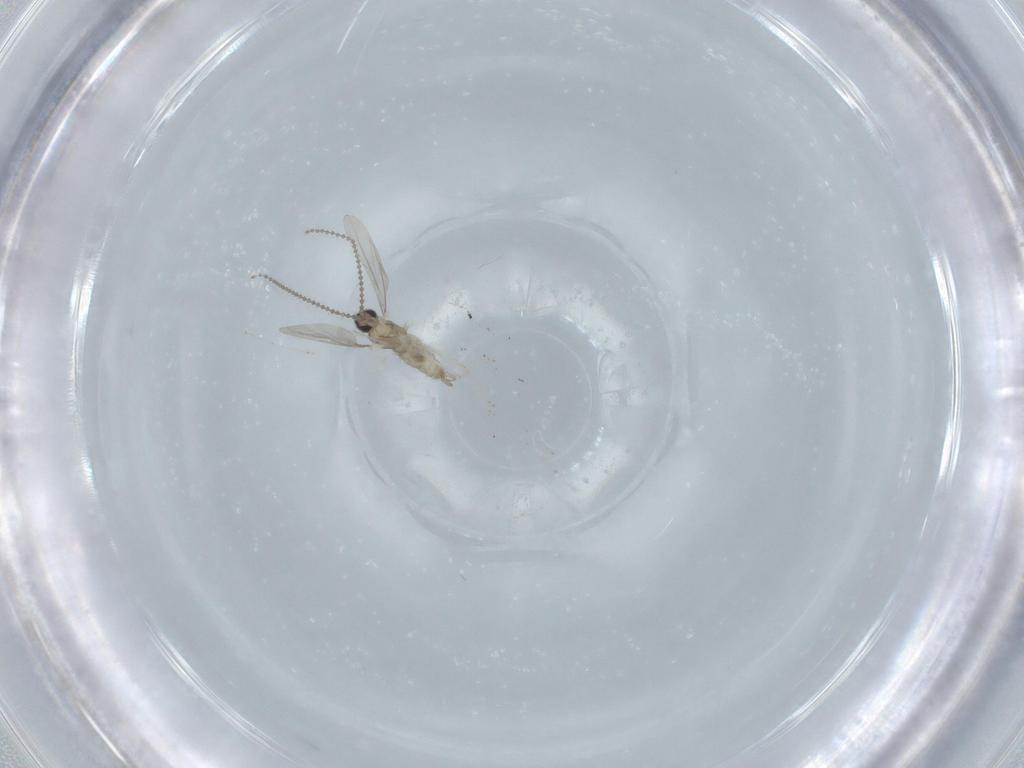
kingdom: Animalia
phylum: Arthropoda
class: Insecta
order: Diptera
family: Cecidomyiidae
